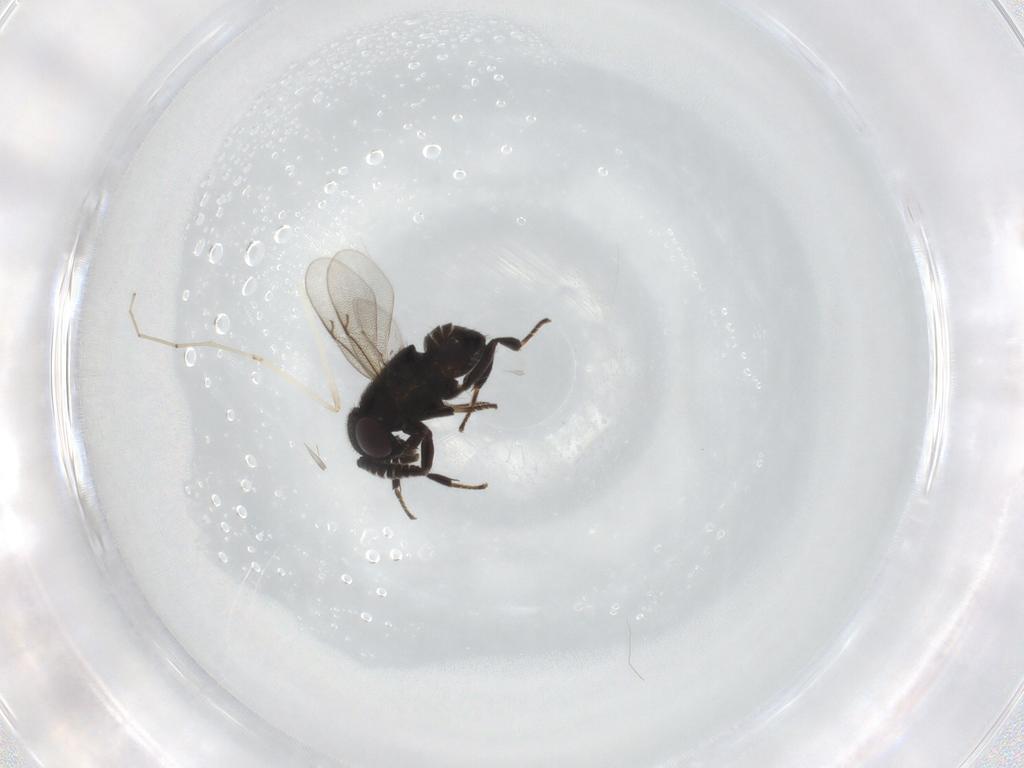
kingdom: Animalia
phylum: Arthropoda
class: Insecta
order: Hymenoptera
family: Encyrtidae
